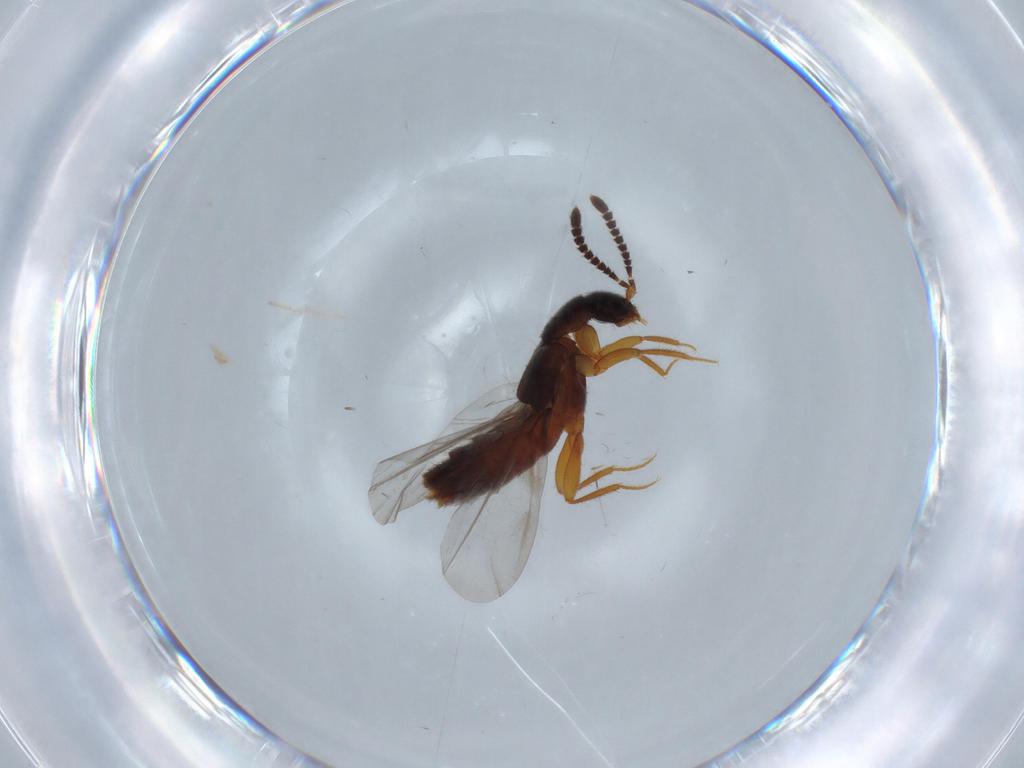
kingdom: Animalia
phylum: Arthropoda
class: Insecta
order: Coleoptera
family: Staphylinidae
